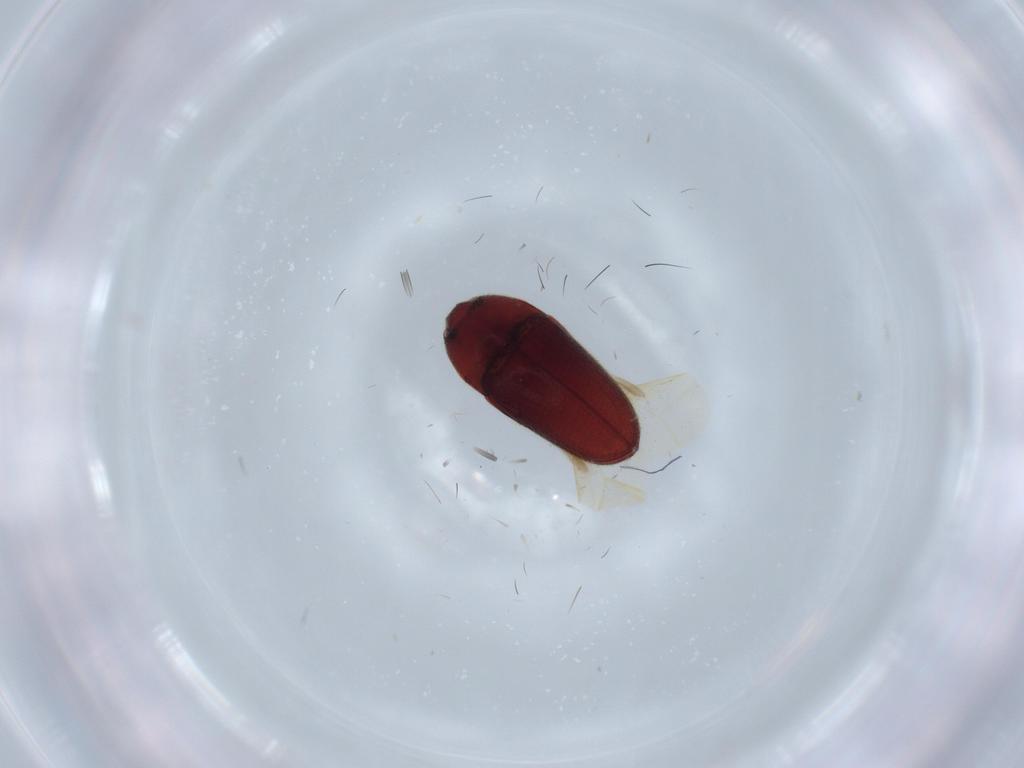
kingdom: Animalia
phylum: Arthropoda
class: Insecta
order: Coleoptera
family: Throscidae
